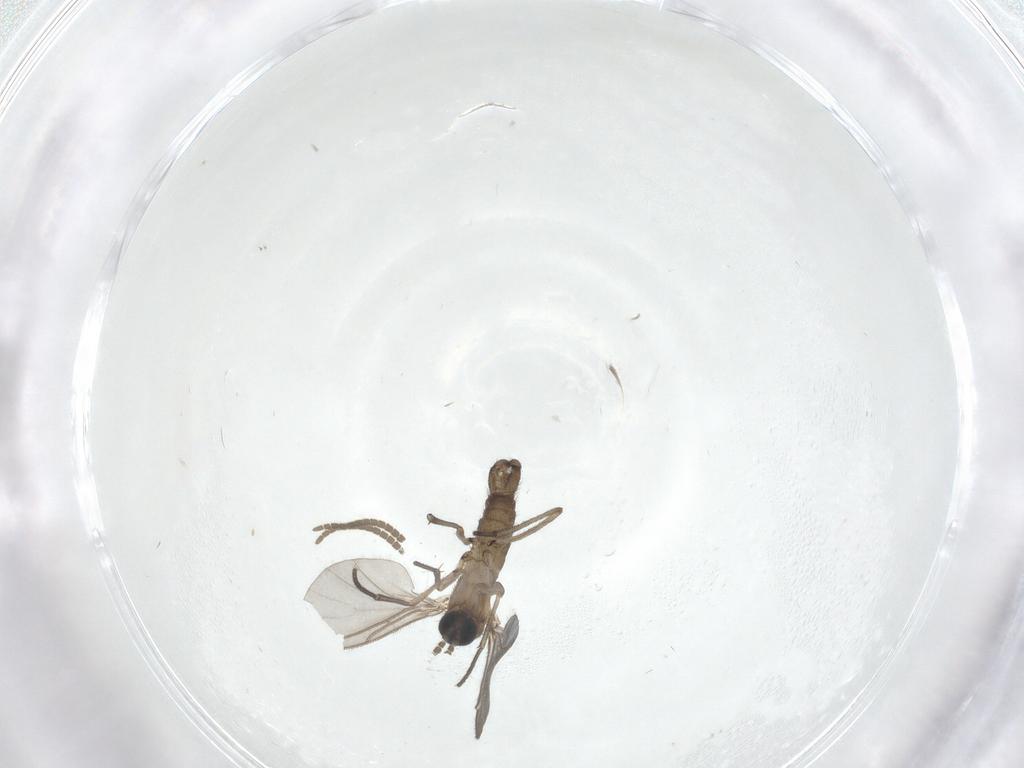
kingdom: Animalia
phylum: Arthropoda
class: Insecta
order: Diptera
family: Micropezidae
